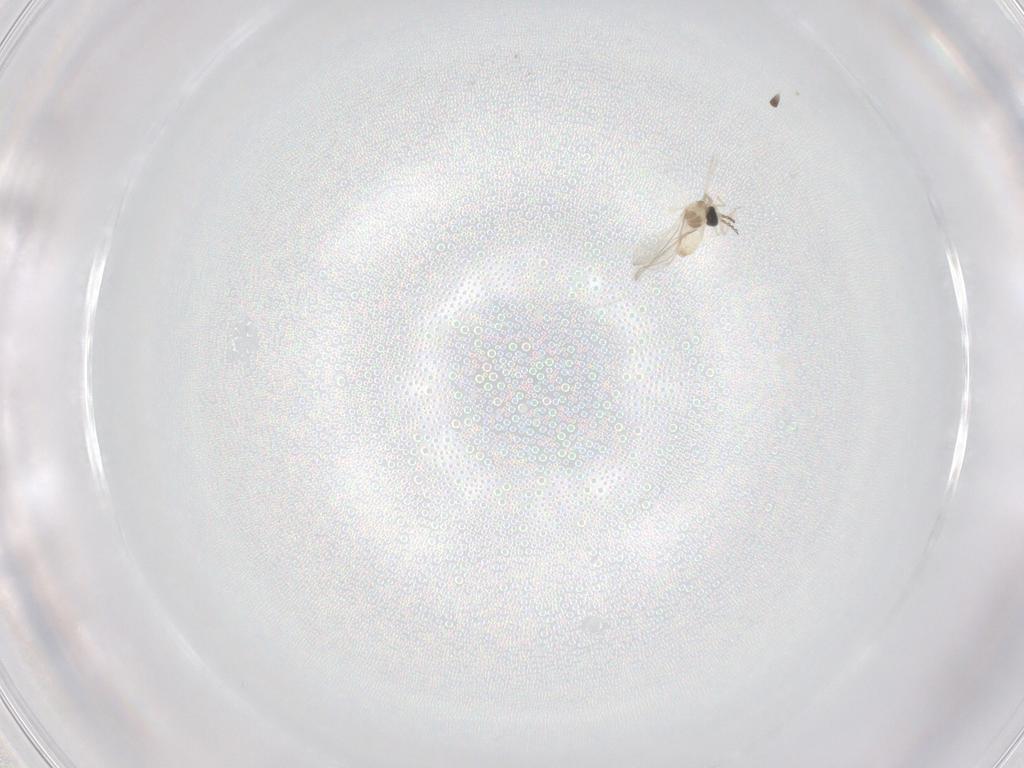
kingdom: Animalia
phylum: Arthropoda
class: Insecta
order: Diptera
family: Cecidomyiidae
